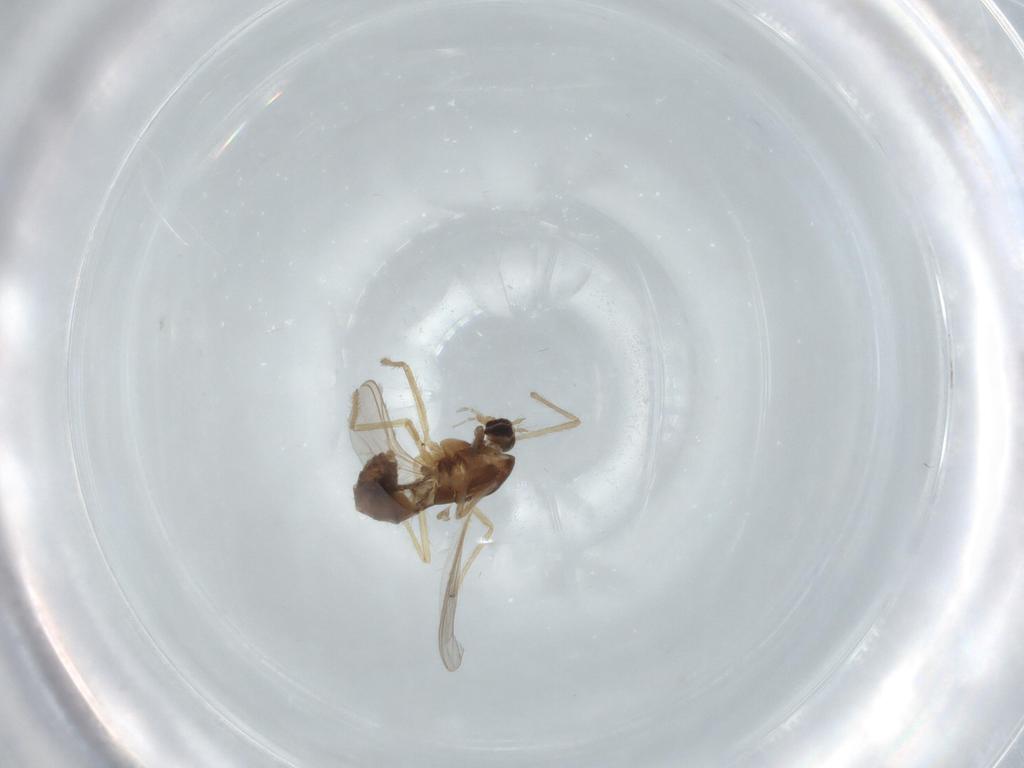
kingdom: Animalia
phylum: Arthropoda
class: Insecta
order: Diptera
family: Chironomidae
